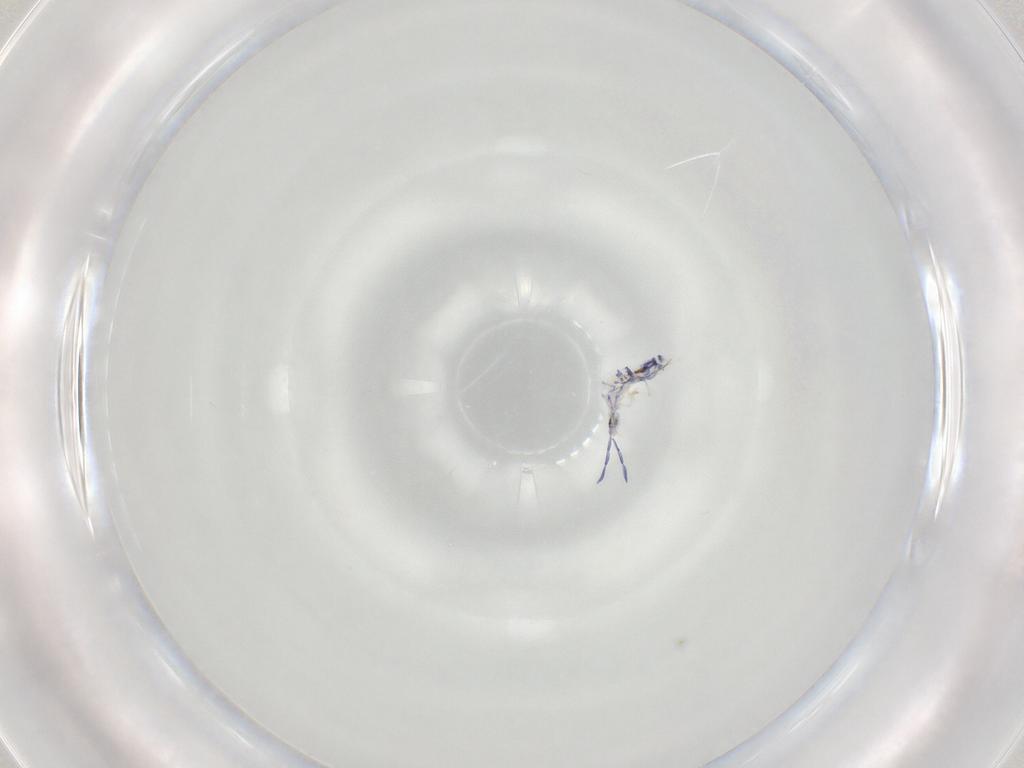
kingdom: Animalia
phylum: Arthropoda
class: Collembola
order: Entomobryomorpha
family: Entomobryidae
